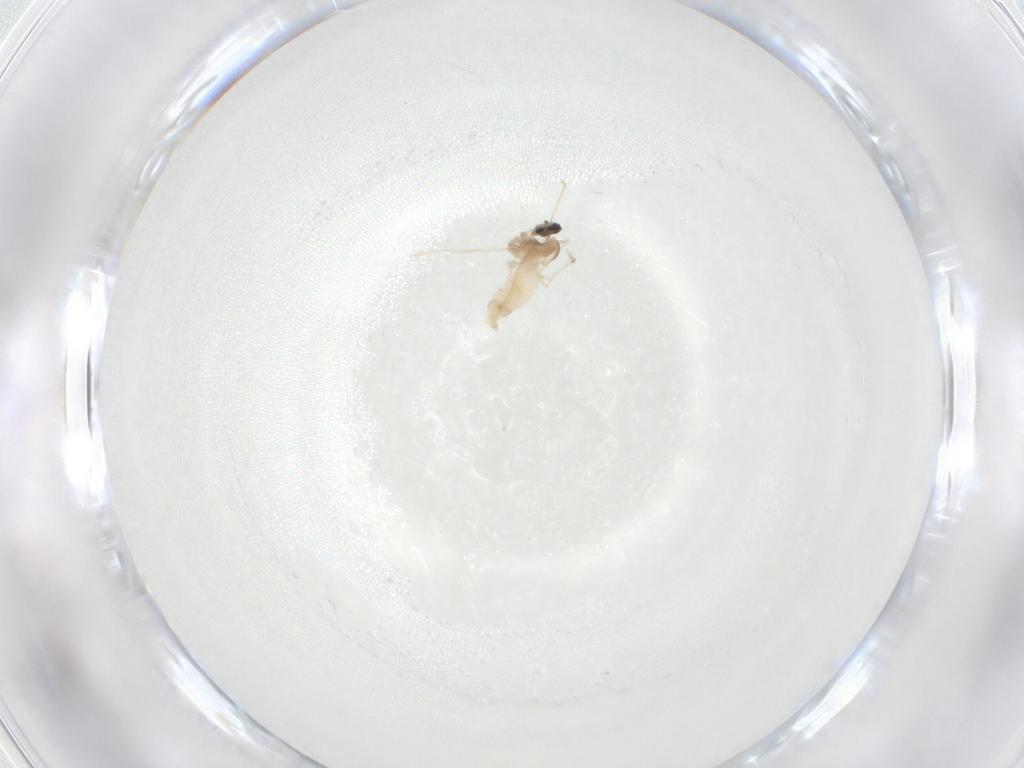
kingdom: Animalia
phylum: Arthropoda
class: Insecta
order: Diptera
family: Cecidomyiidae
